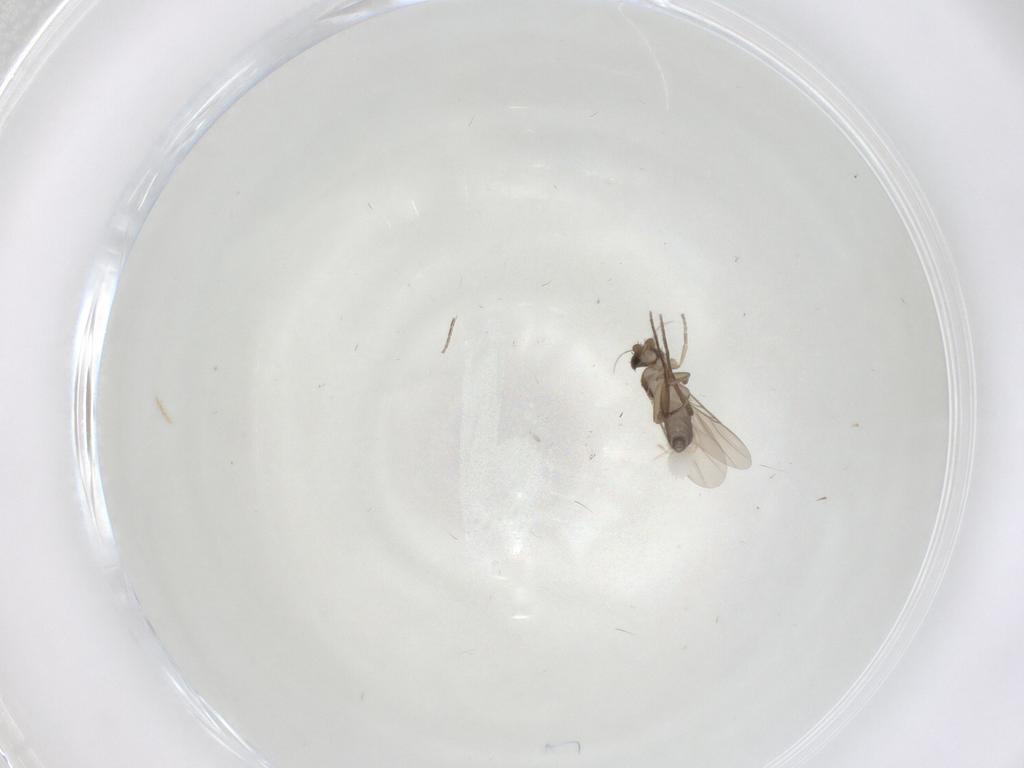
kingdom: Animalia
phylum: Arthropoda
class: Insecta
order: Diptera
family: Phoridae
